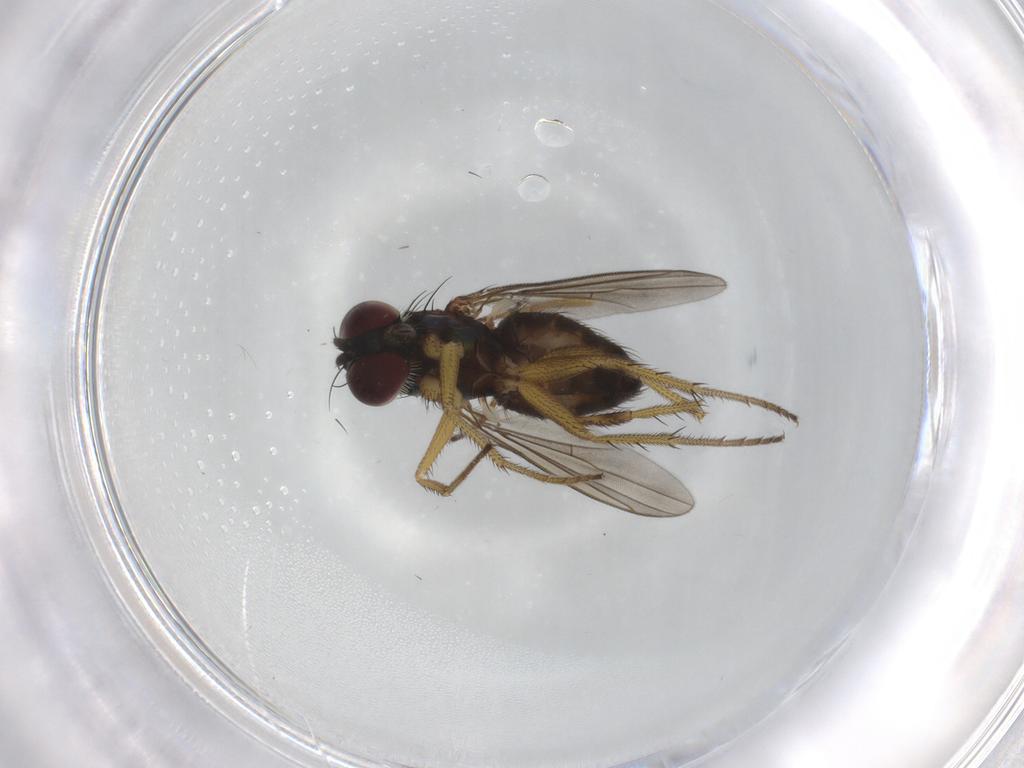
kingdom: Animalia
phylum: Arthropoda
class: Insecta
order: Diptera
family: Dolichopodidae
